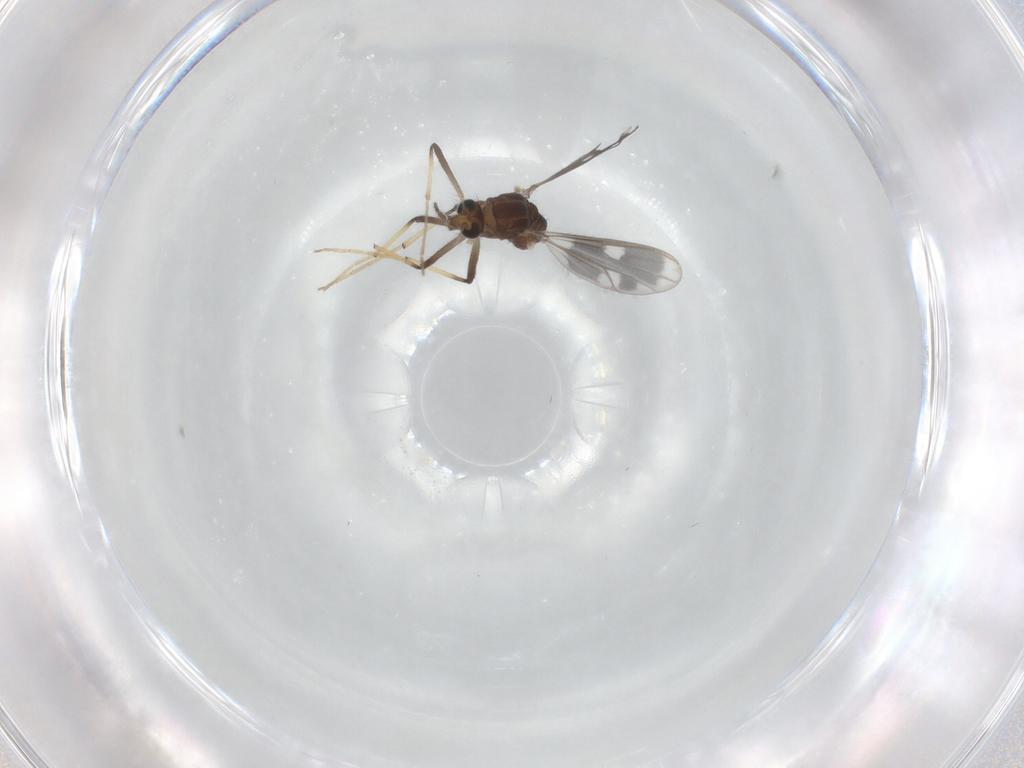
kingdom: Animalia
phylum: Arthropoda
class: Insecta
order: Diptera
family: Chironomidae
